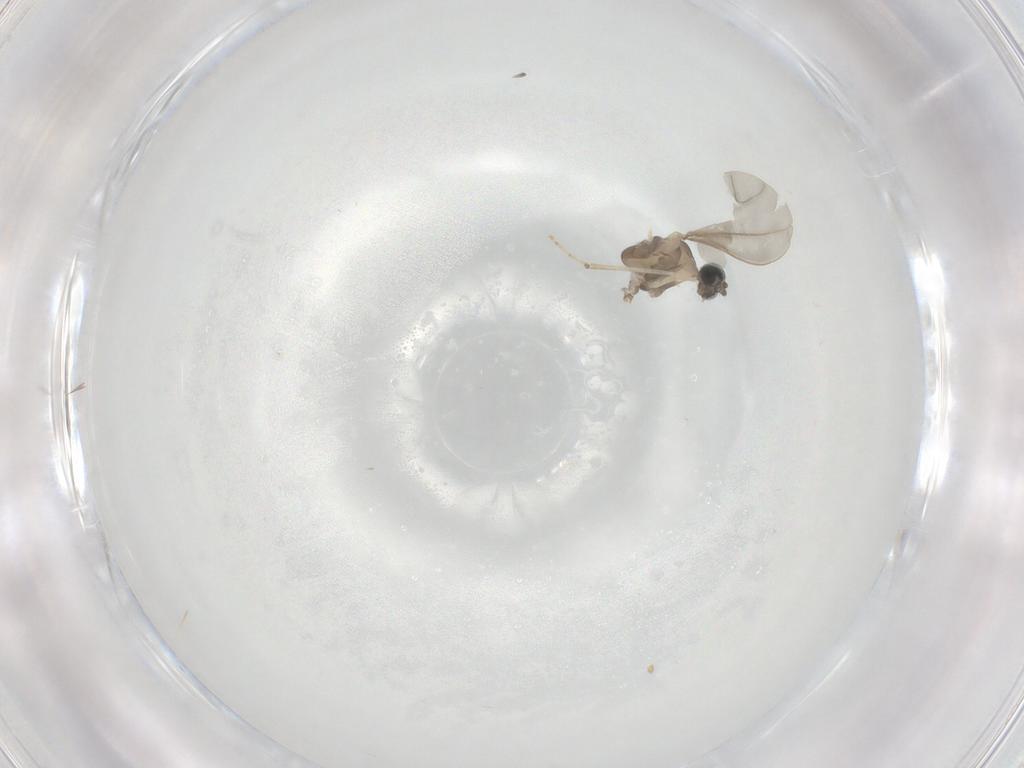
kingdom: Animalia
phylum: Arthropoda
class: Insecta
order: Diptera
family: Cecidomyiidae
